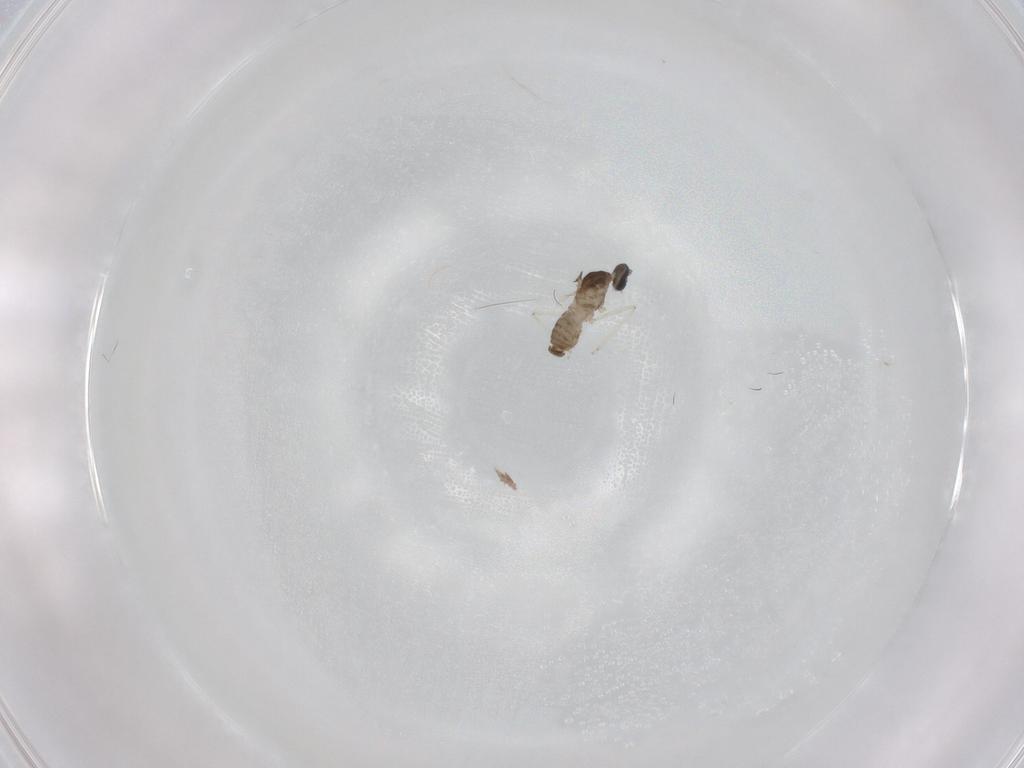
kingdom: Animalia
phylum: Arthropoda
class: Insecta
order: Diptera
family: Cecidomyiidae
